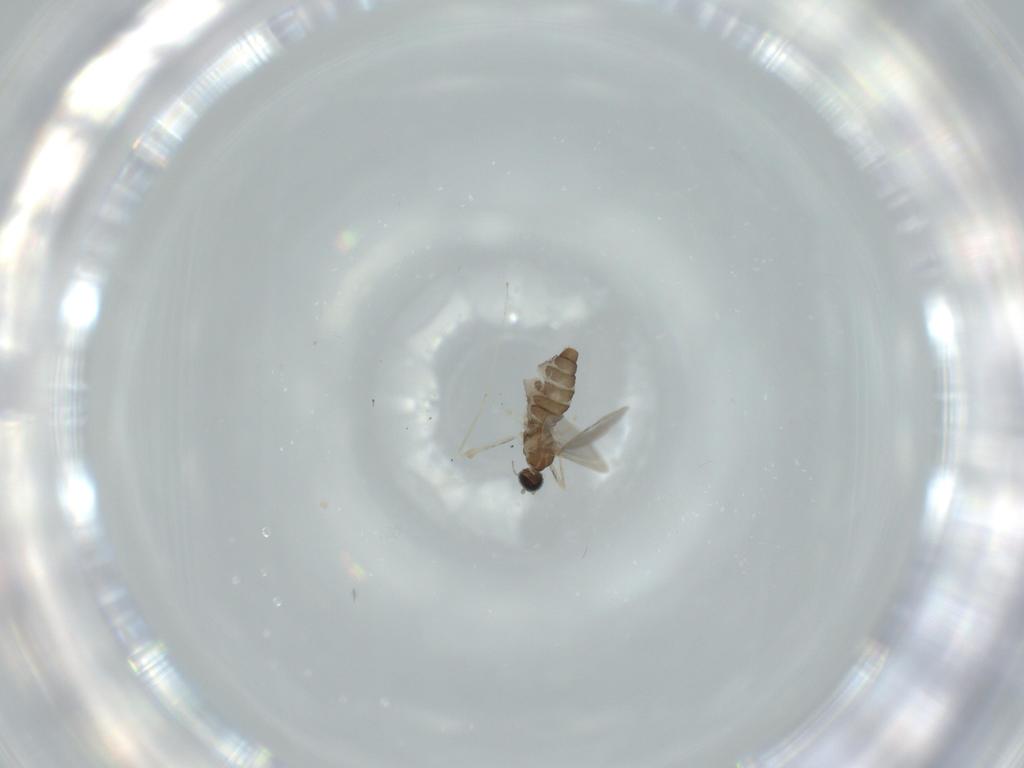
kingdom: Animalia
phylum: Arthropoda
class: Insecta
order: Diptera
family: Cecidomyiidae
